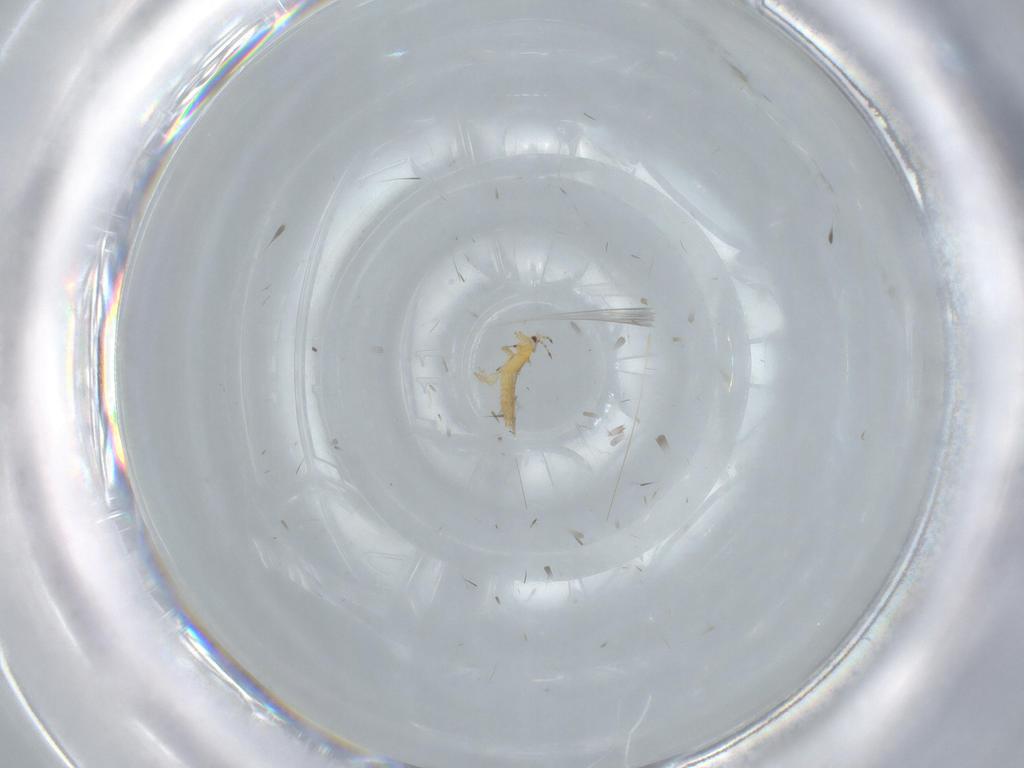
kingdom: Animalia
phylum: Arthropoda
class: Insecta
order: Thysanoptera
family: Thripidae
